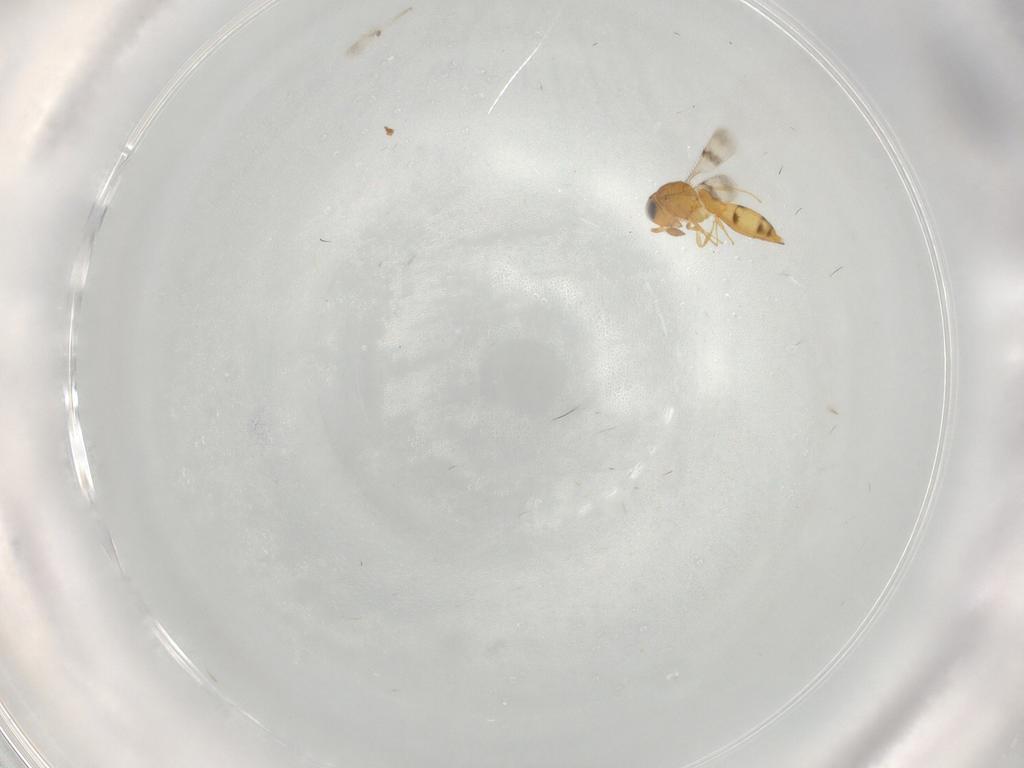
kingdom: Animalia
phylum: Arthropoda
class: Insecta
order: Hymenoptera
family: Scelionidae
